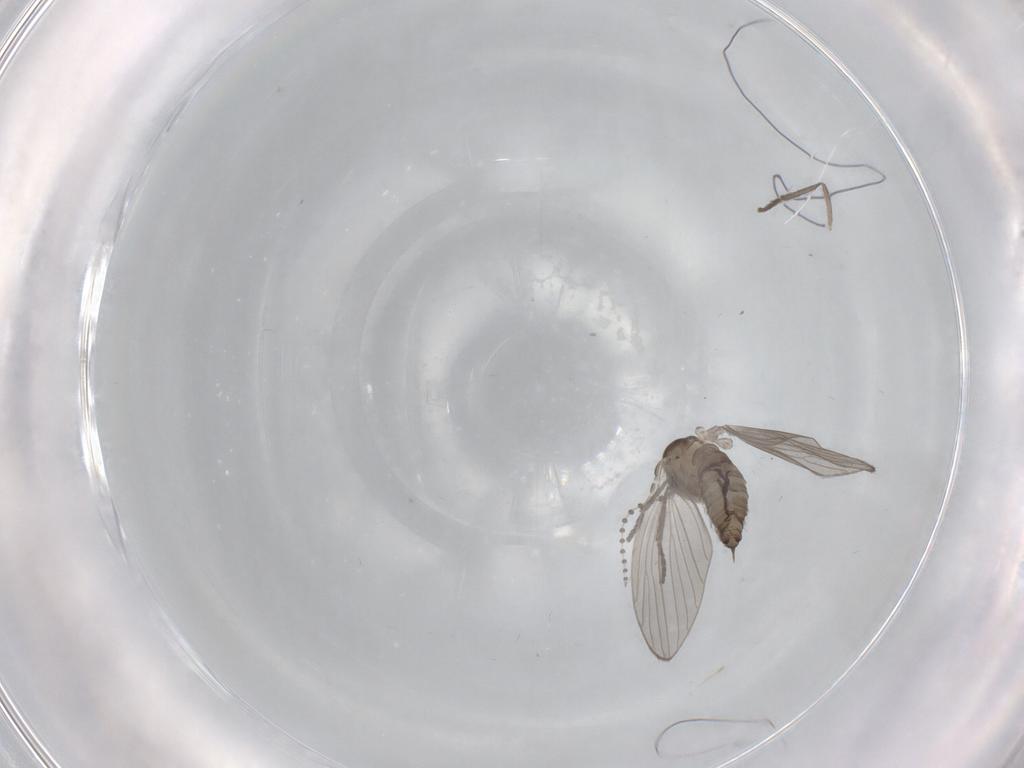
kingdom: Animalia
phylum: Arthropoda
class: Insecta
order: Diptera
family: Psychodidae
